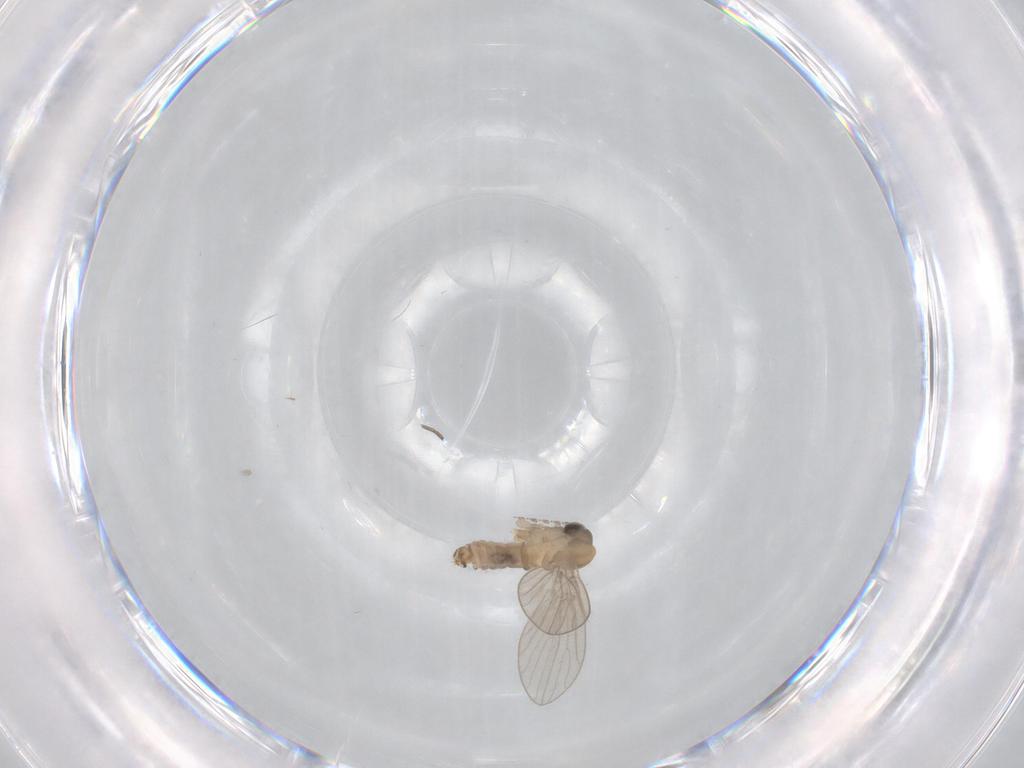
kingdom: Animalia
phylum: Arthropoda
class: Insecta
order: Diptera
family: Psychodidae
